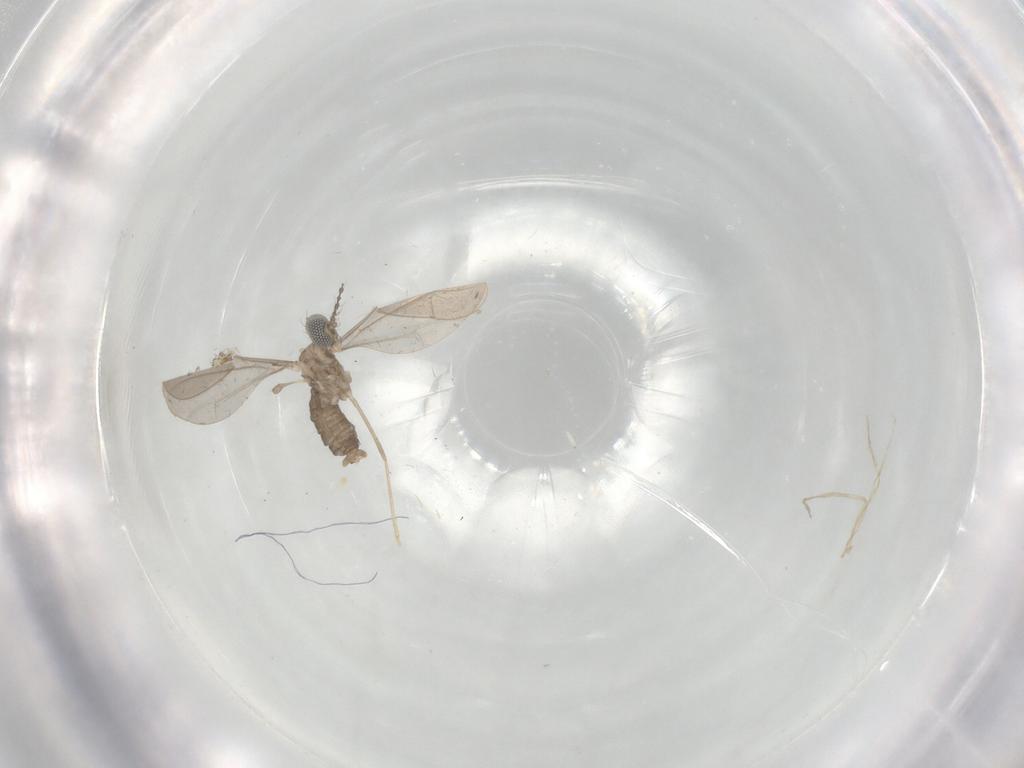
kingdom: Animalia
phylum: Arthropoda
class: Insecta
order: Diptera
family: Cecidomyiidae
